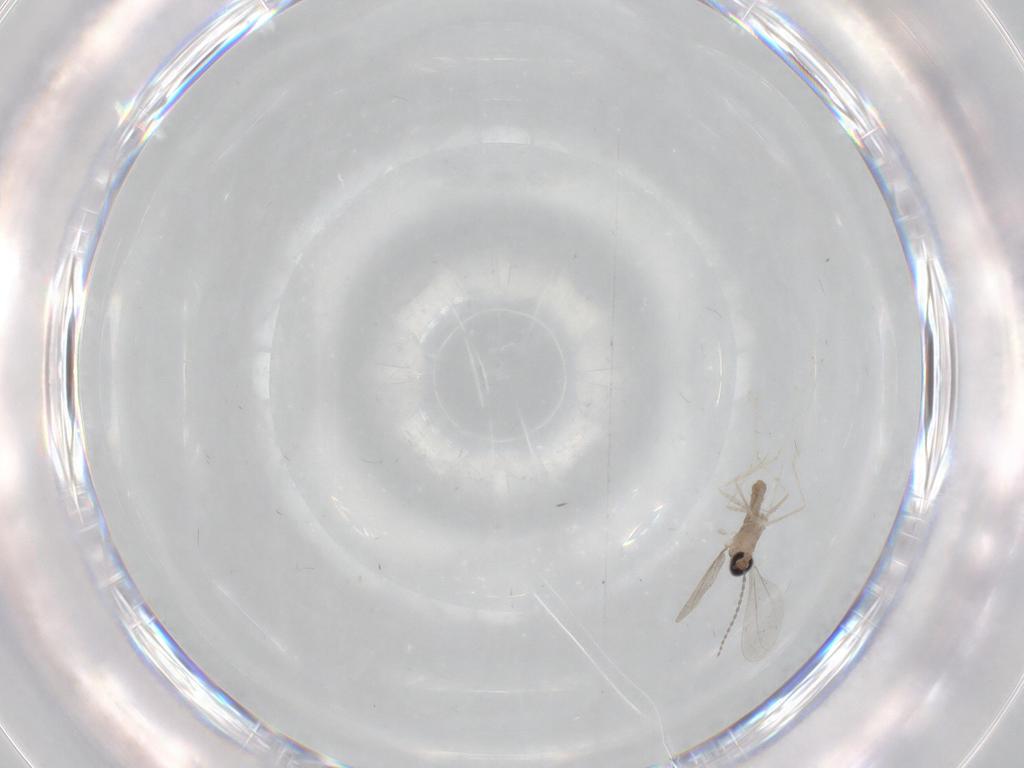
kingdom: Animalia
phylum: Arthropoda
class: Insecta
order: Diptera
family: Cecidomyiidae
